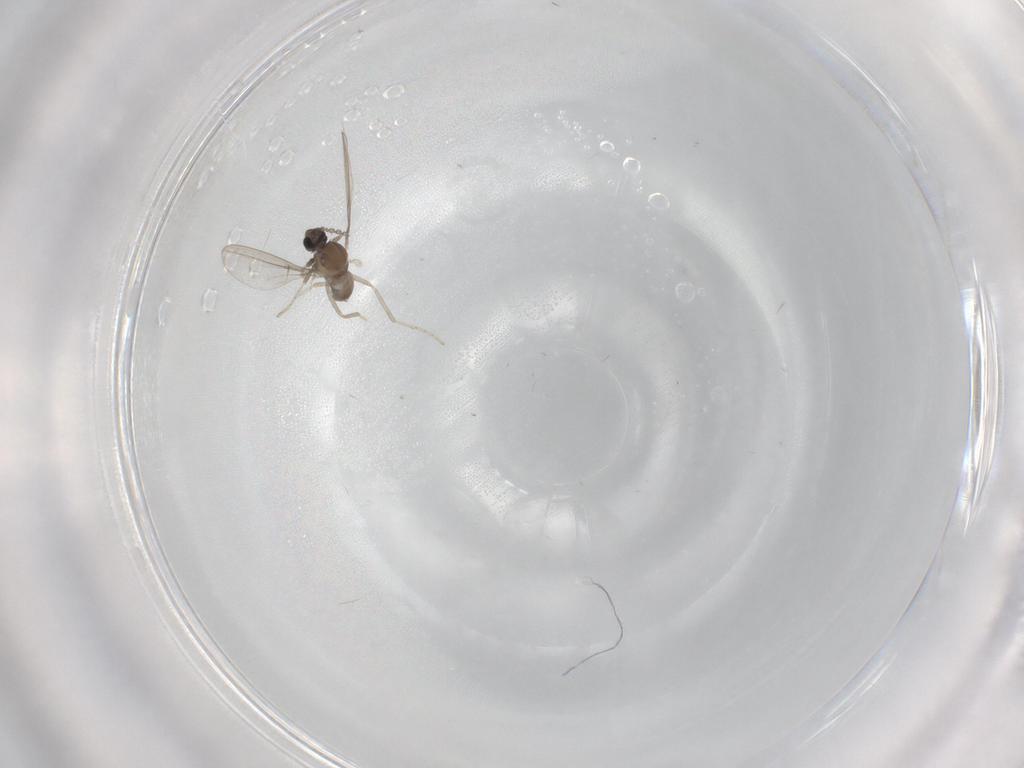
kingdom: Animalia
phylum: Arthropoda
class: Insecta
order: Diptera
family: Cecidomyiidae
